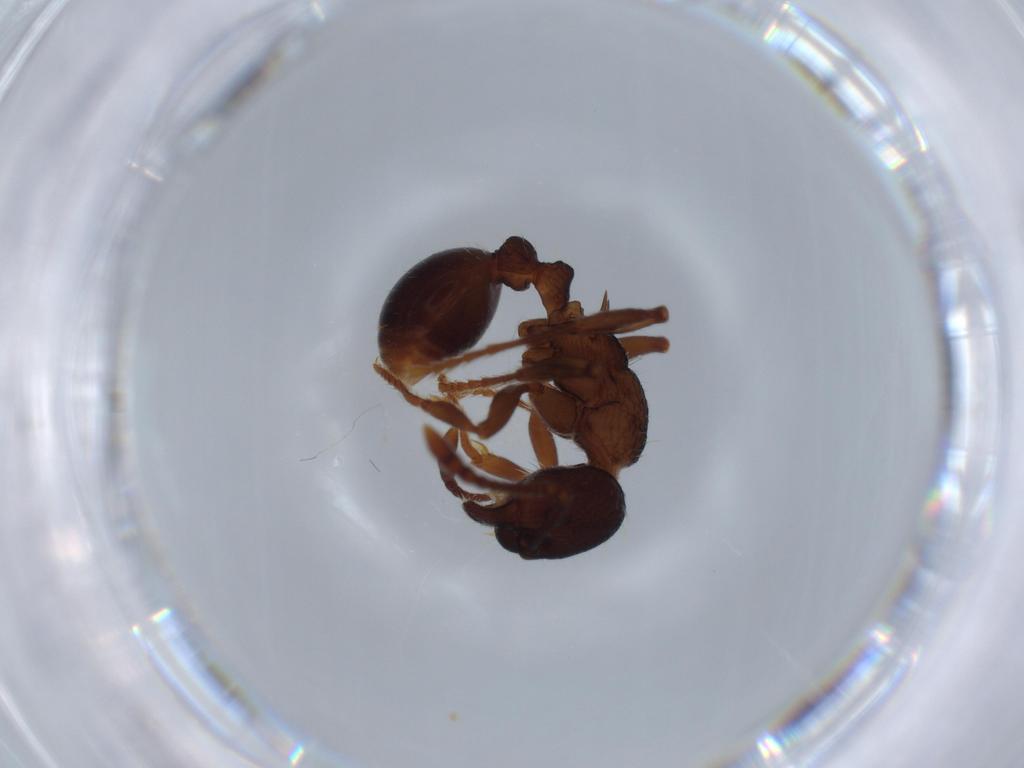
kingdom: Animalia
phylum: Arthropoda
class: Insecta
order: Hymenoptera
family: Formicidae
